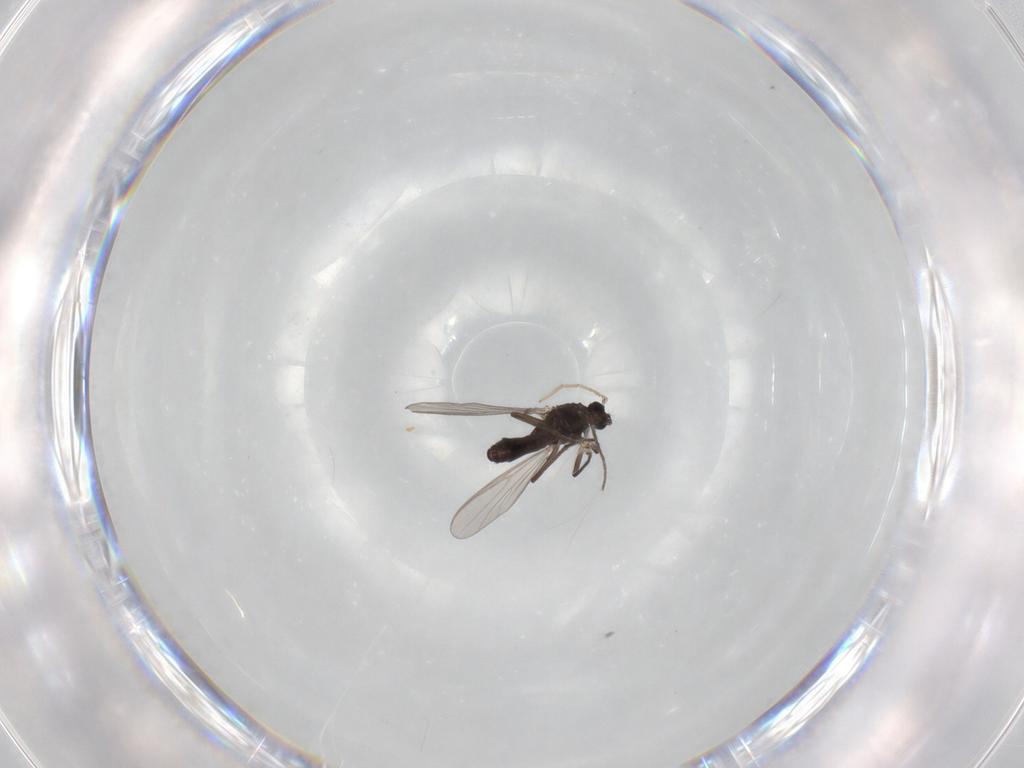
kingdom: Animalia
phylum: Arthropoda
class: Insecta
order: Diptera
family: Chironomidae
